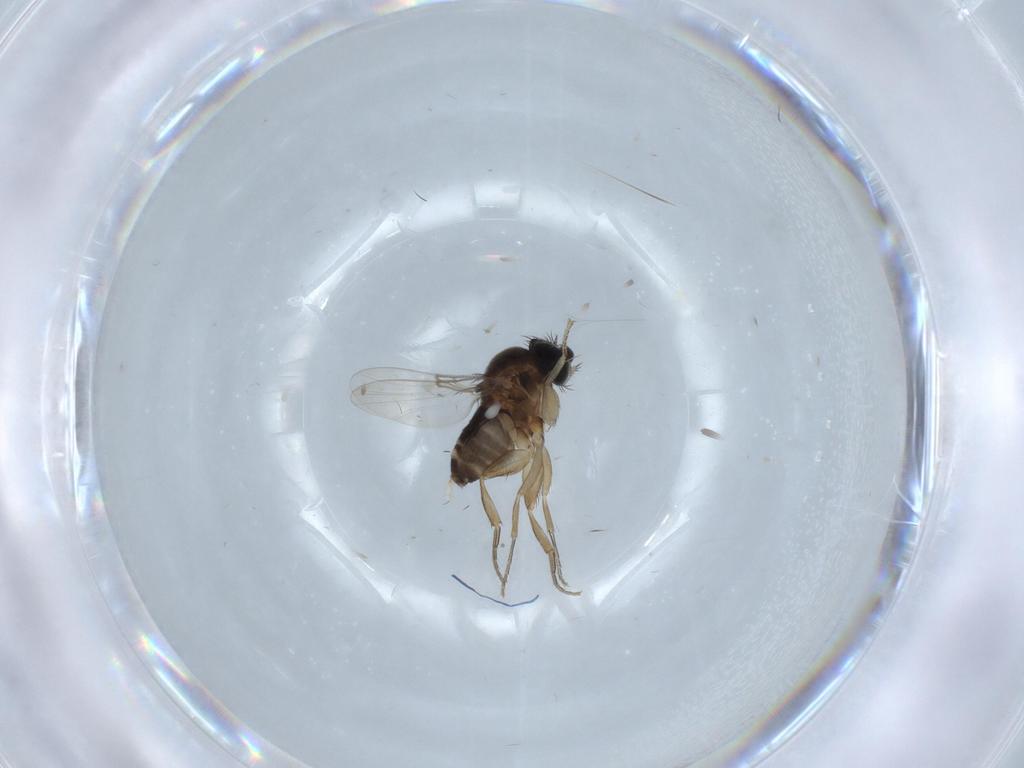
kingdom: Animalia
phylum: Arthropoda
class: Insecta
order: Diptera
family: Phoridae
